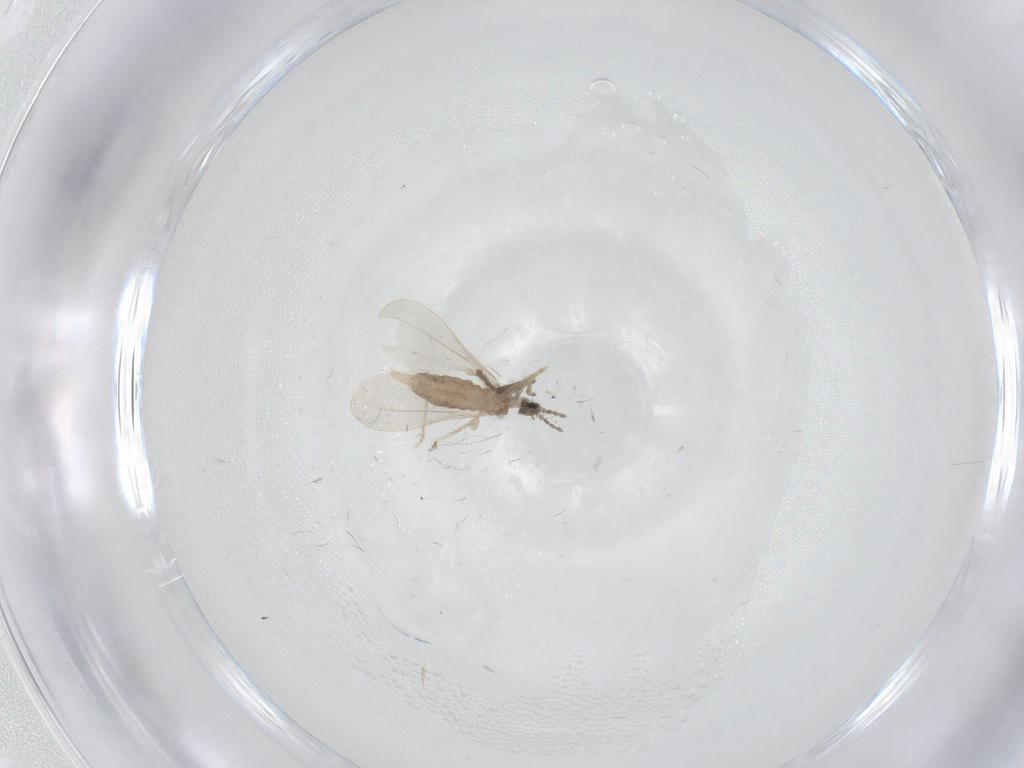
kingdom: Animalia
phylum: Arthropoda
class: Insecta
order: Diptera
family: Cecidomyiidae
